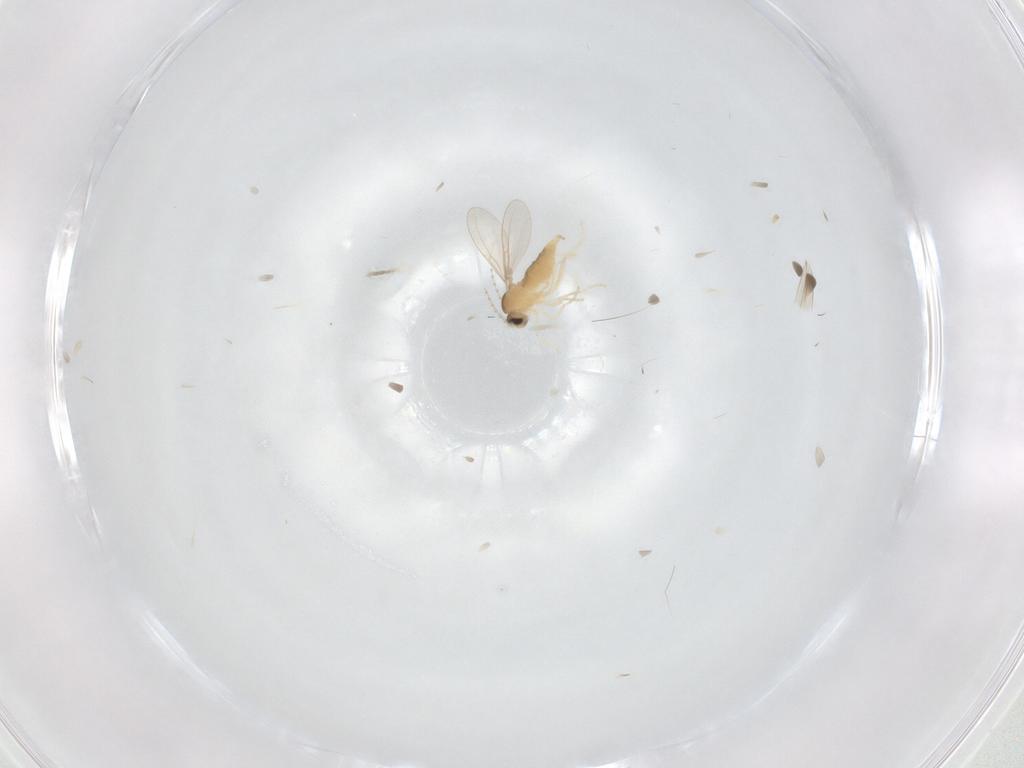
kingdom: Animalia
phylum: Arthropoda
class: Insecta
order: Diptera
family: Cecidomyiidae
